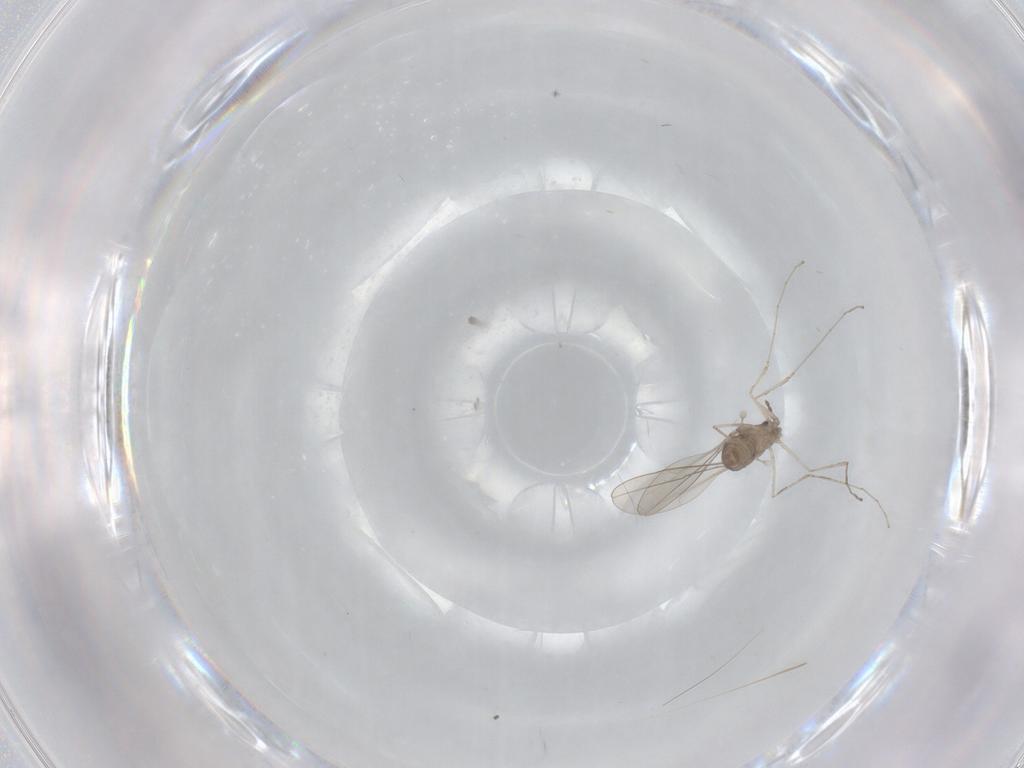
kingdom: Animalia
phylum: Arthropoda
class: Insecta
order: Diptera
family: Cecidomyiidae
